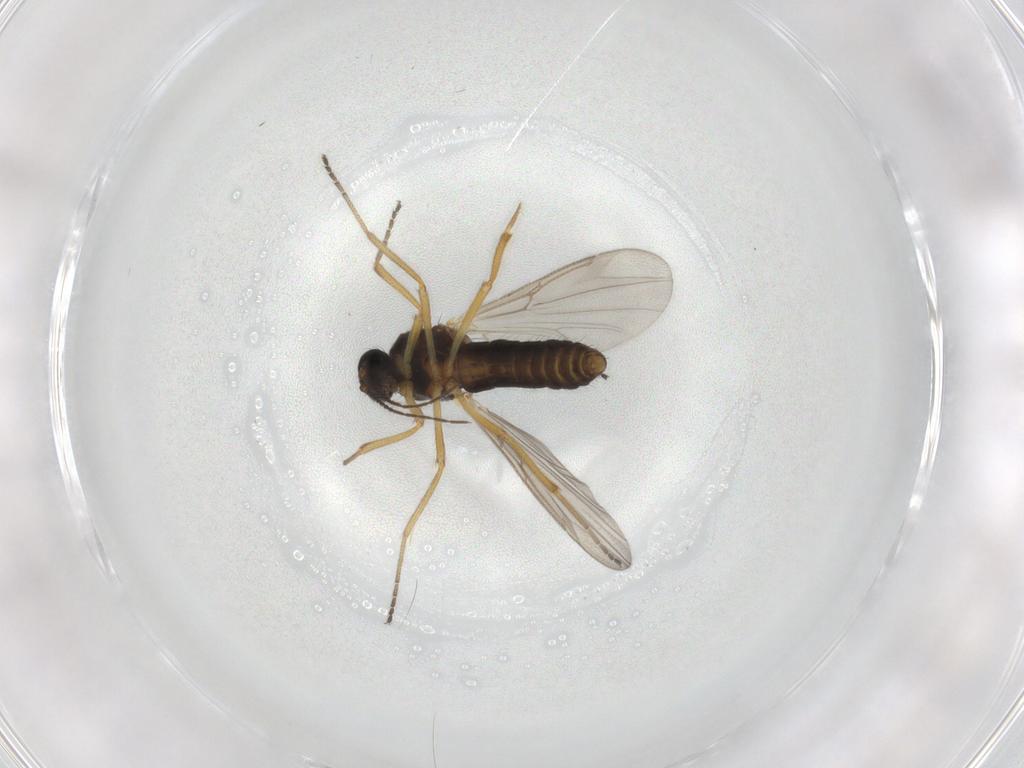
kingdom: Animalia
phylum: Arthropoda
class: Insecta
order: Diptera
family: Ceratopogonidae
